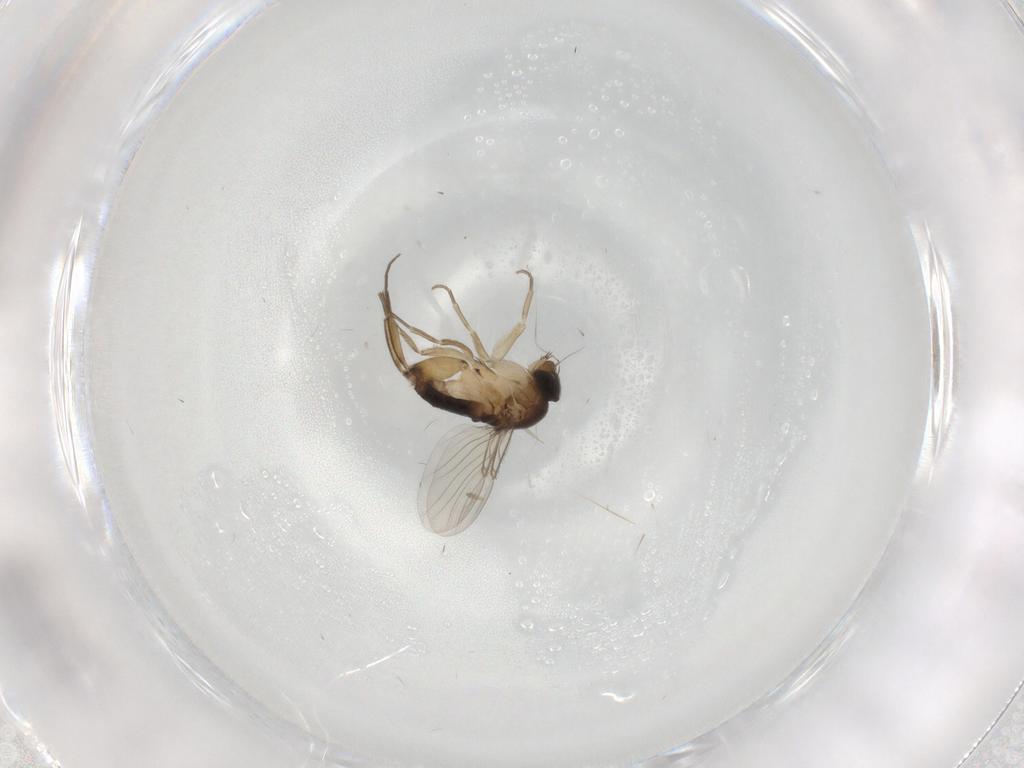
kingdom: Animalia
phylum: Arthropoda
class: Insecta
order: Diptera
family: Phoridae
